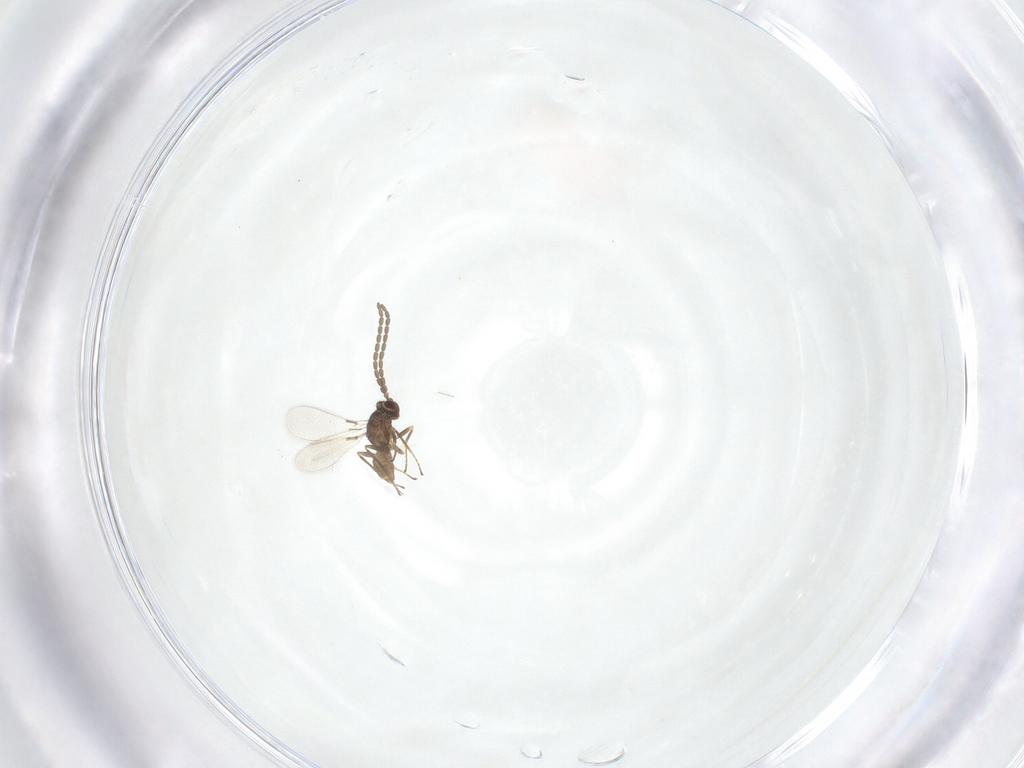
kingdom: Animalia
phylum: Arthropoda
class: Insecta
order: Hymenoptera
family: Mymaridae
